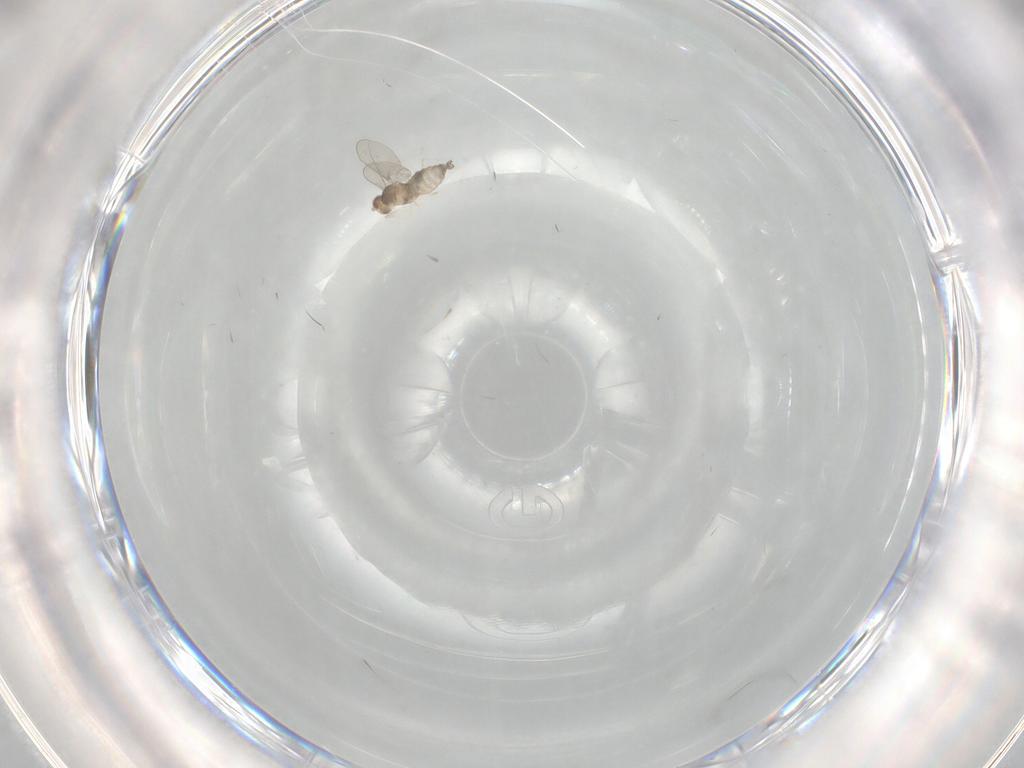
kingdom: Animalia
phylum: Arthropoda
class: Insecta
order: Diptera
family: Cecidomyiidae
